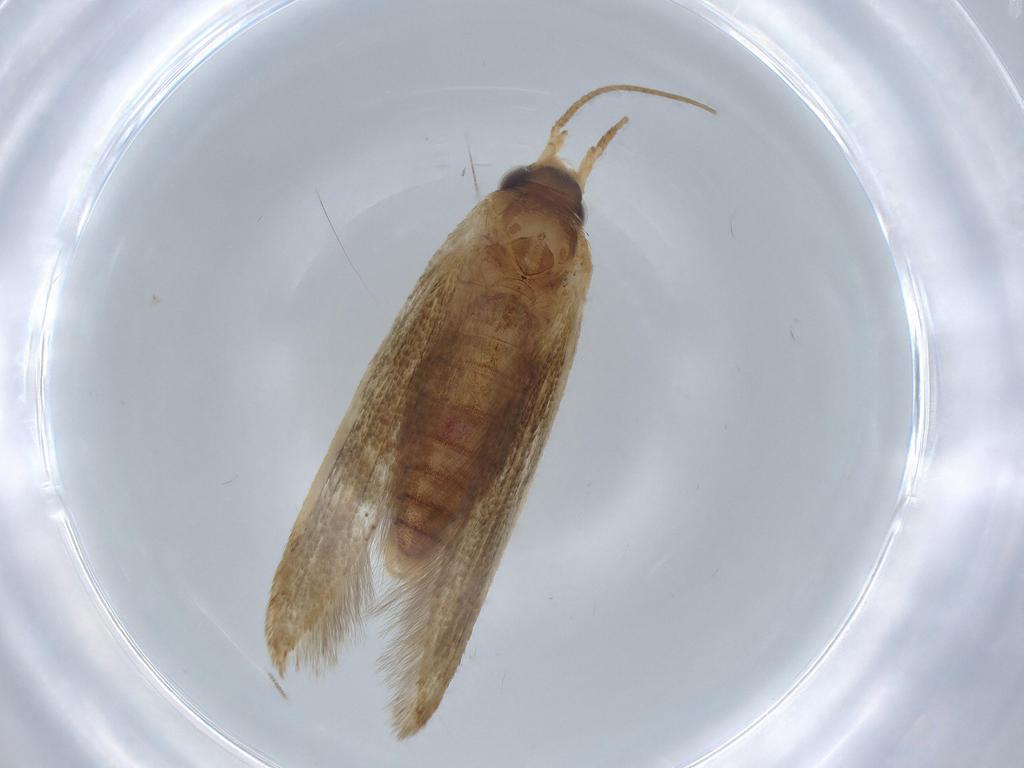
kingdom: Animalia
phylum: Arthropoda
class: Insecta
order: Lepidoptera
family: Blastobasidae
